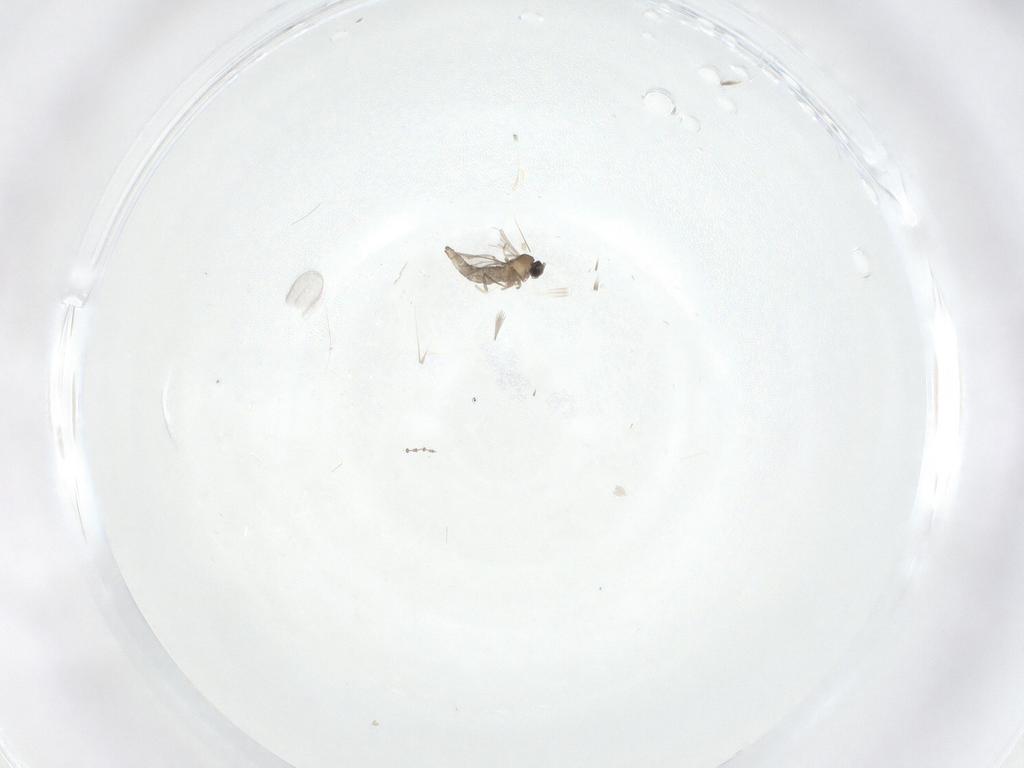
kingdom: Animalia
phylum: Arthropoda
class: Insecta
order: Diptera
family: Cecidomyiidae
